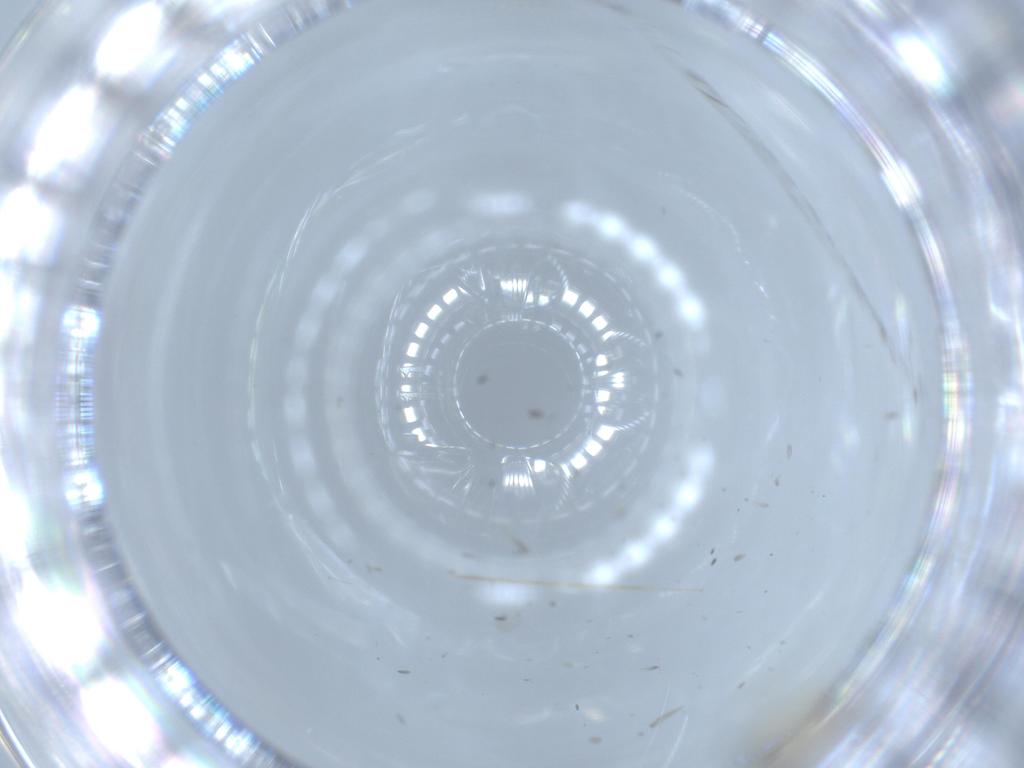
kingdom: Animalia
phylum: Arthropoda
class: Insecta
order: Diptera
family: Cecidomyiidae
